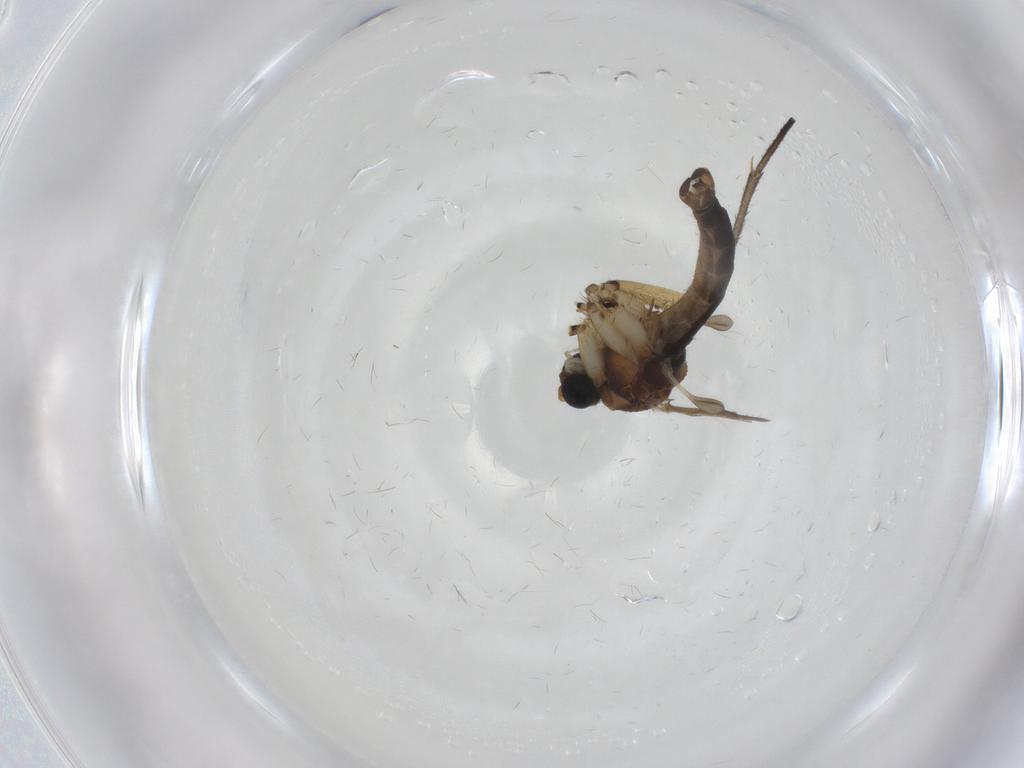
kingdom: Animalia
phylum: Arthropoda
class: Insecta
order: Diptera
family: Sciaridae
